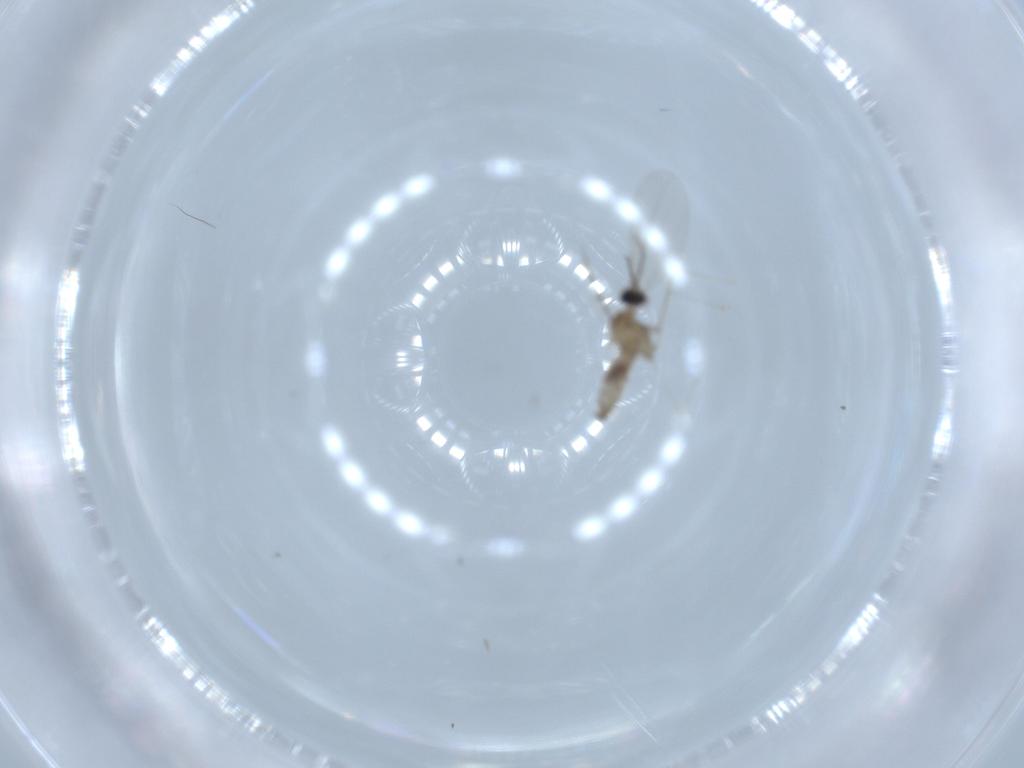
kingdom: Animalia
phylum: Arthropoda
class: Insecta
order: Diptera
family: Cecidomyiidae
